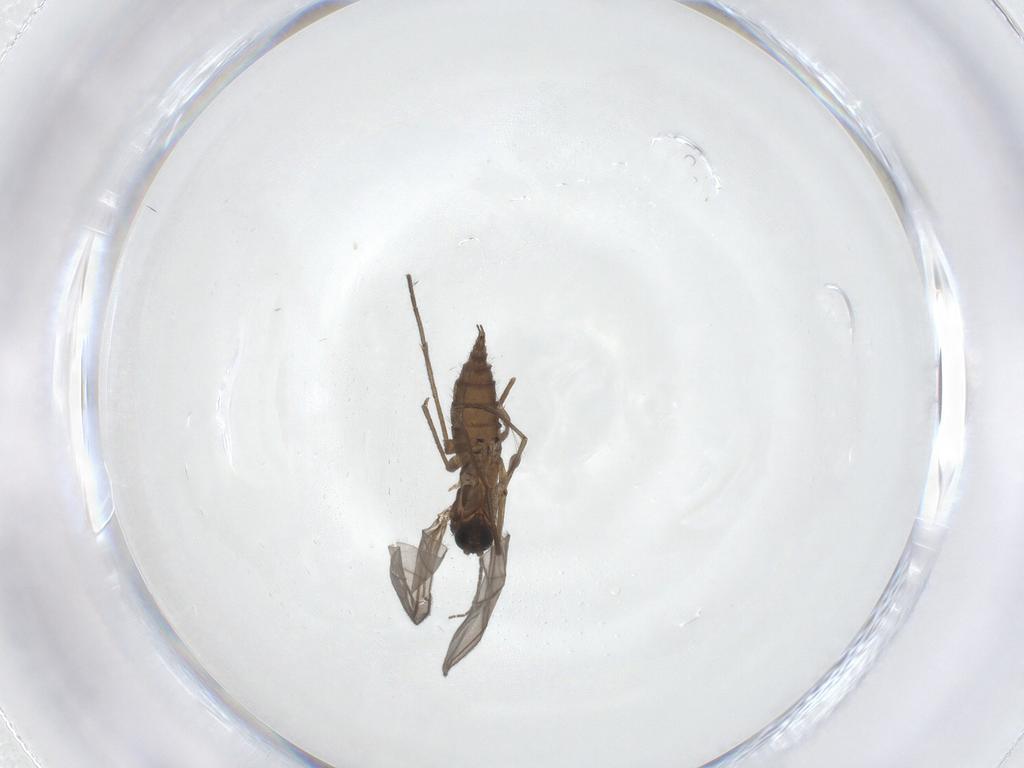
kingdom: Animalia
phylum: Arthropoda
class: Insecta
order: Diptera
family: Sciaridae
